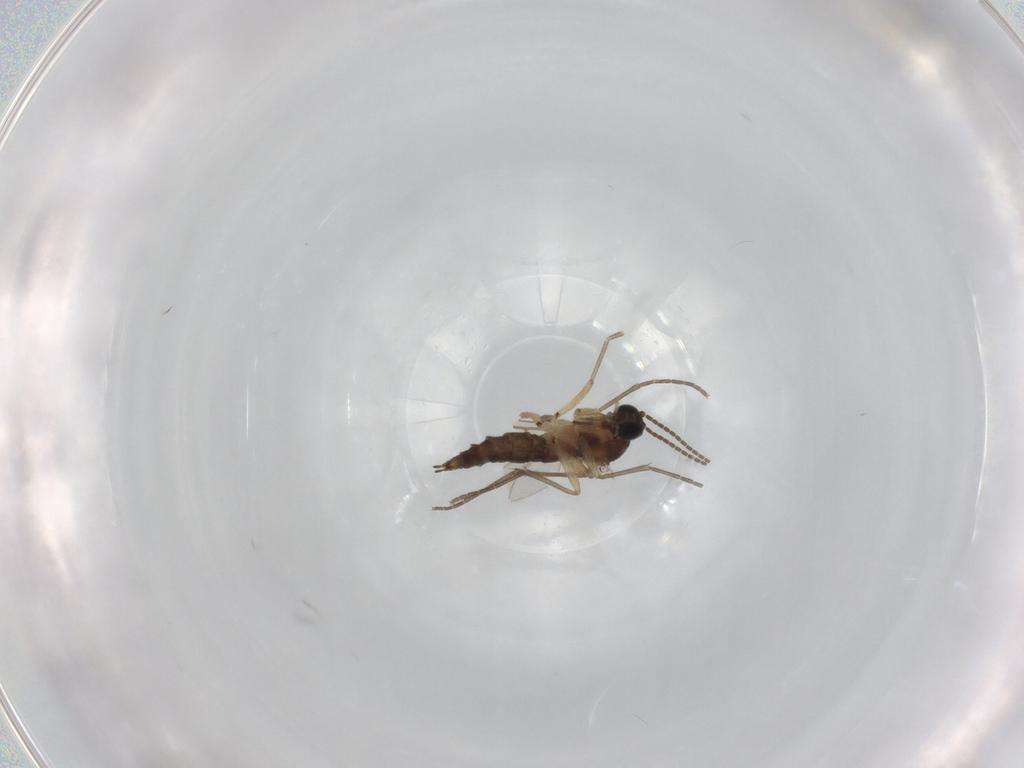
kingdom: Animalia
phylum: Arthropoda
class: Insecta
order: Diptera
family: Sciaridae
